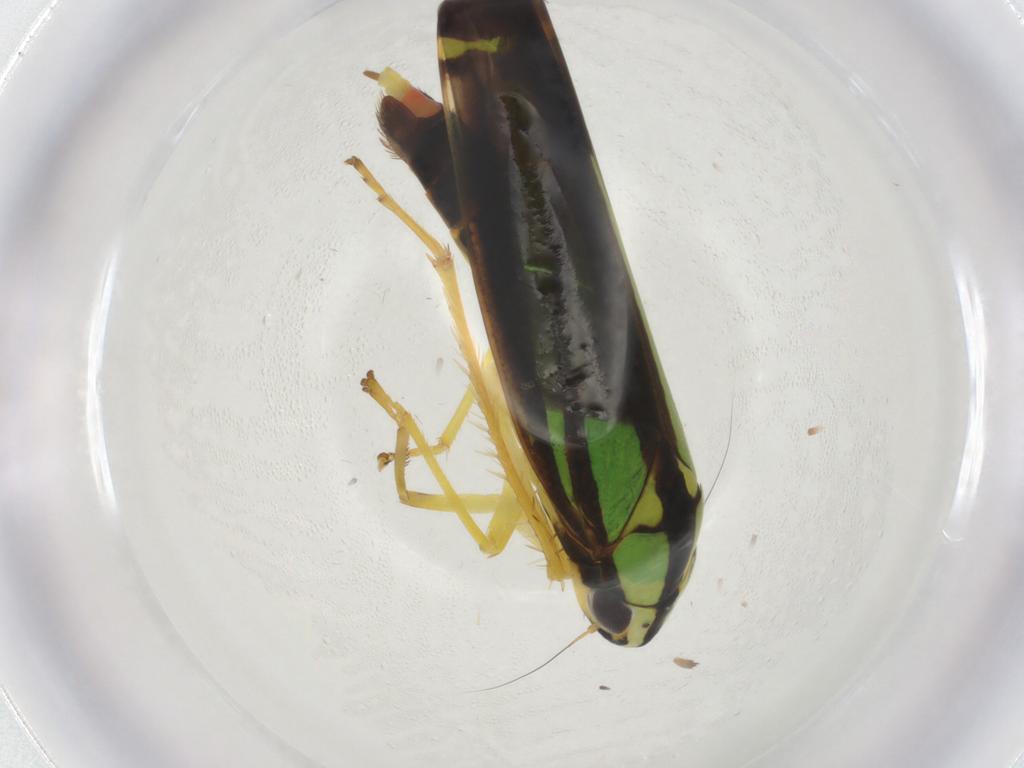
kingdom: Animalia
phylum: Arthropoda
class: Insecta
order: Hemiptera
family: Cicadellidae
